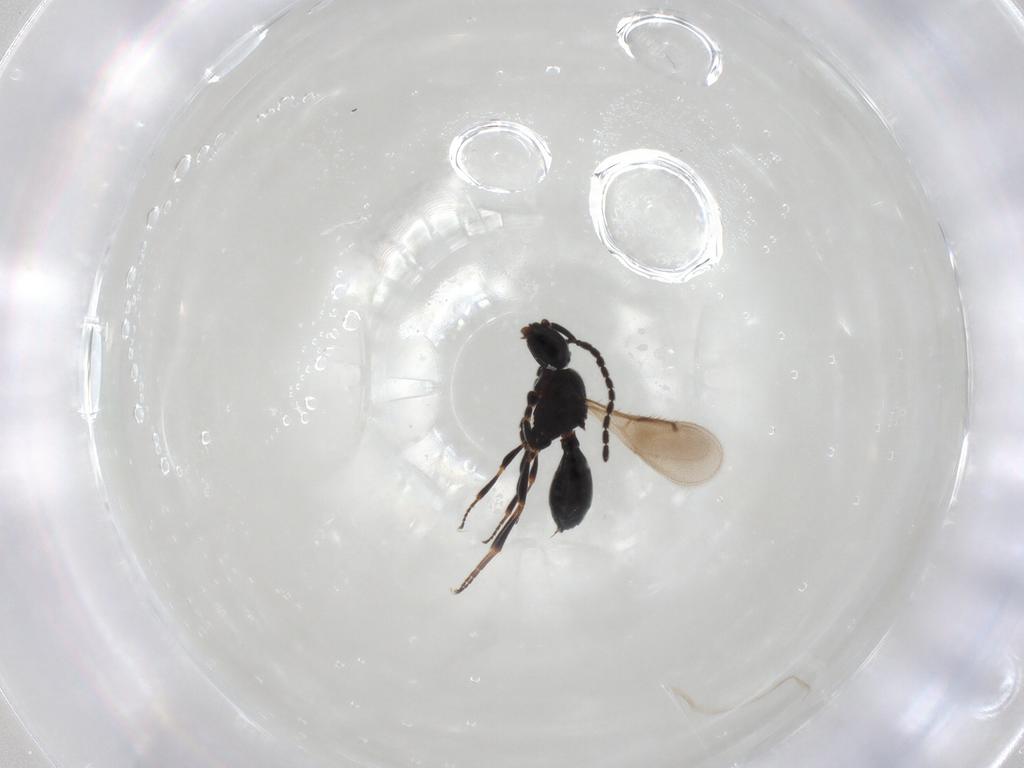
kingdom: Animalia
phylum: Arthropoda
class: Insecta
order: Hymenoptera
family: Scelionidae
